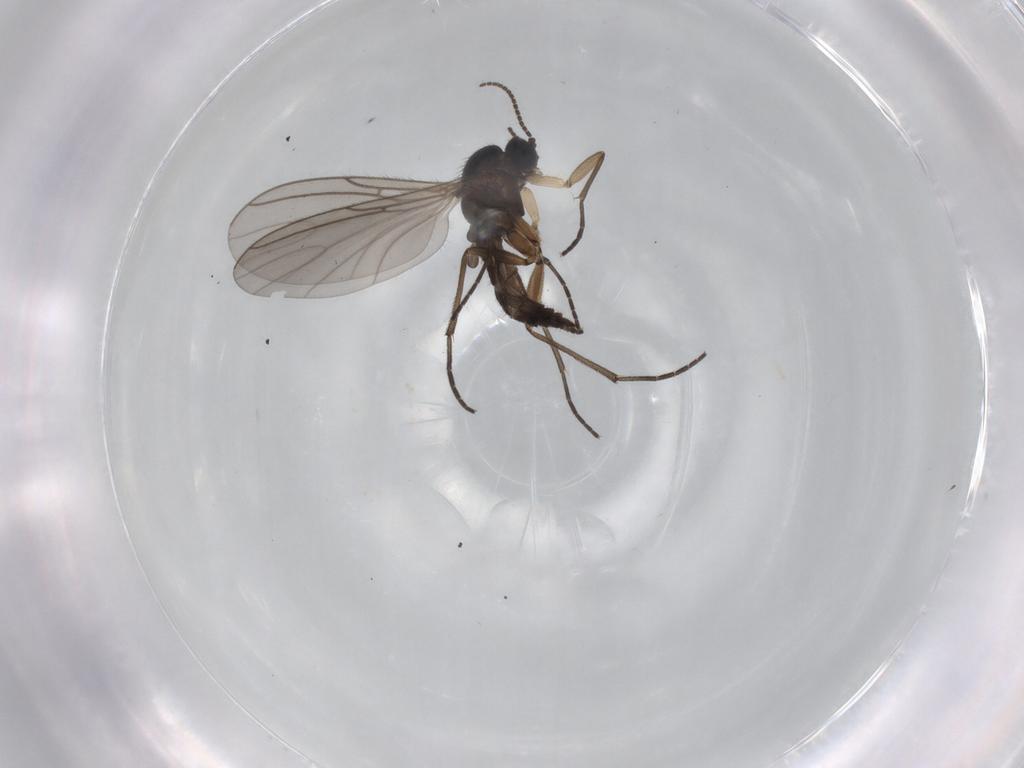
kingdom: Animalia
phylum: Arthropoda
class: Insecta
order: Diptera
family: Sciaridae
